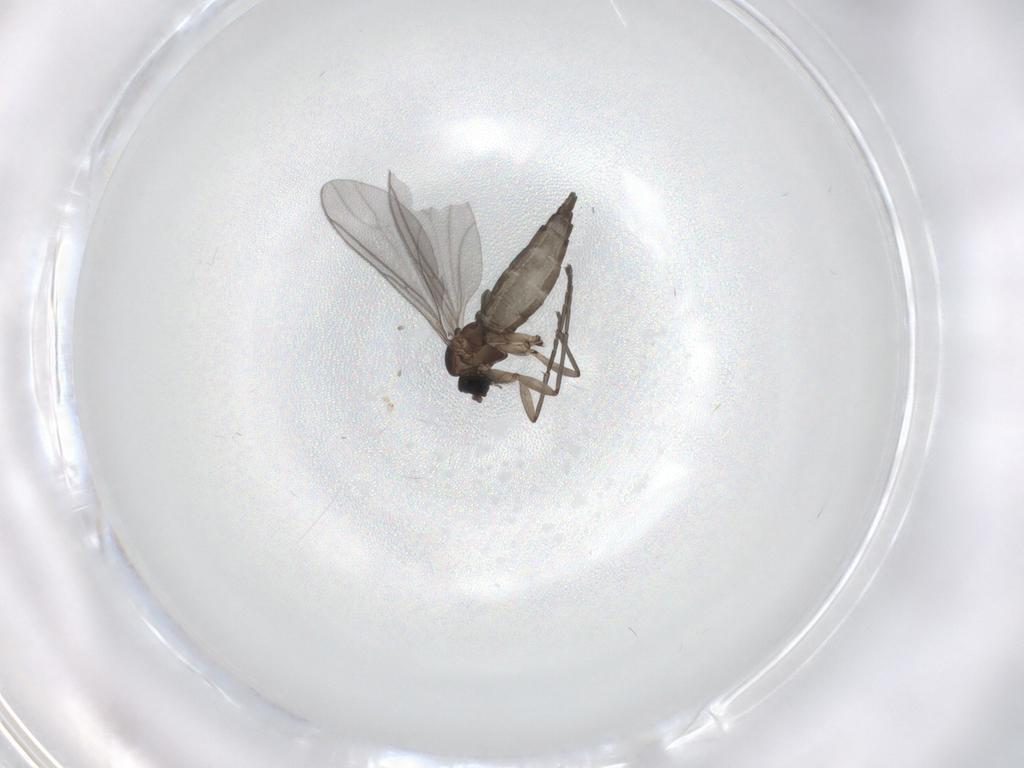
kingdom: Animalia
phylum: Arthropoda
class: Insecta
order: Diptera
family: Sciaridae
